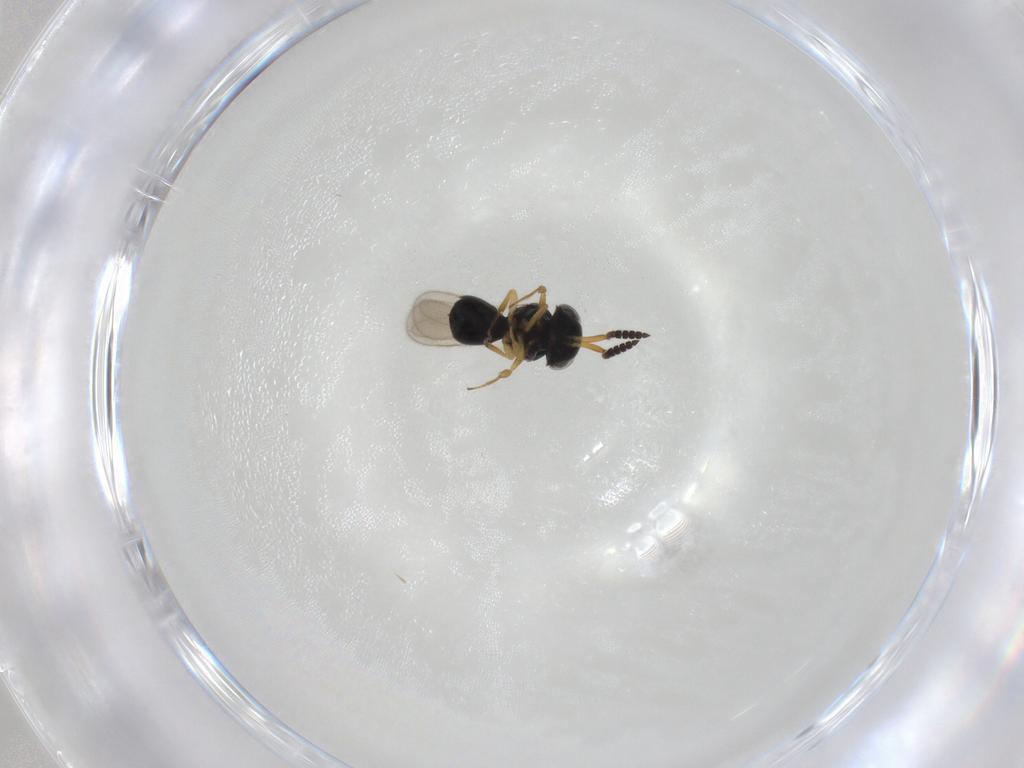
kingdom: Animalia
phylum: Arthropoda
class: Insecta
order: Hymenoptera
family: Scelionidae
